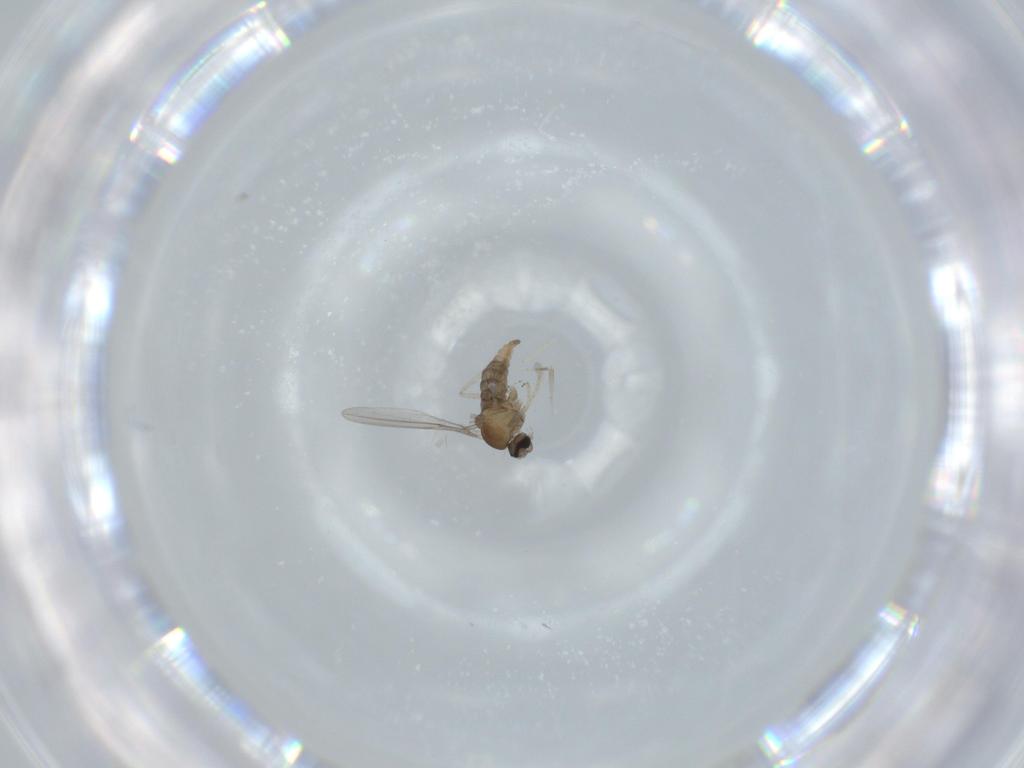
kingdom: Animalia
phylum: Arthropoda
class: Insecta
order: Diptera
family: Cecidomyiidae
